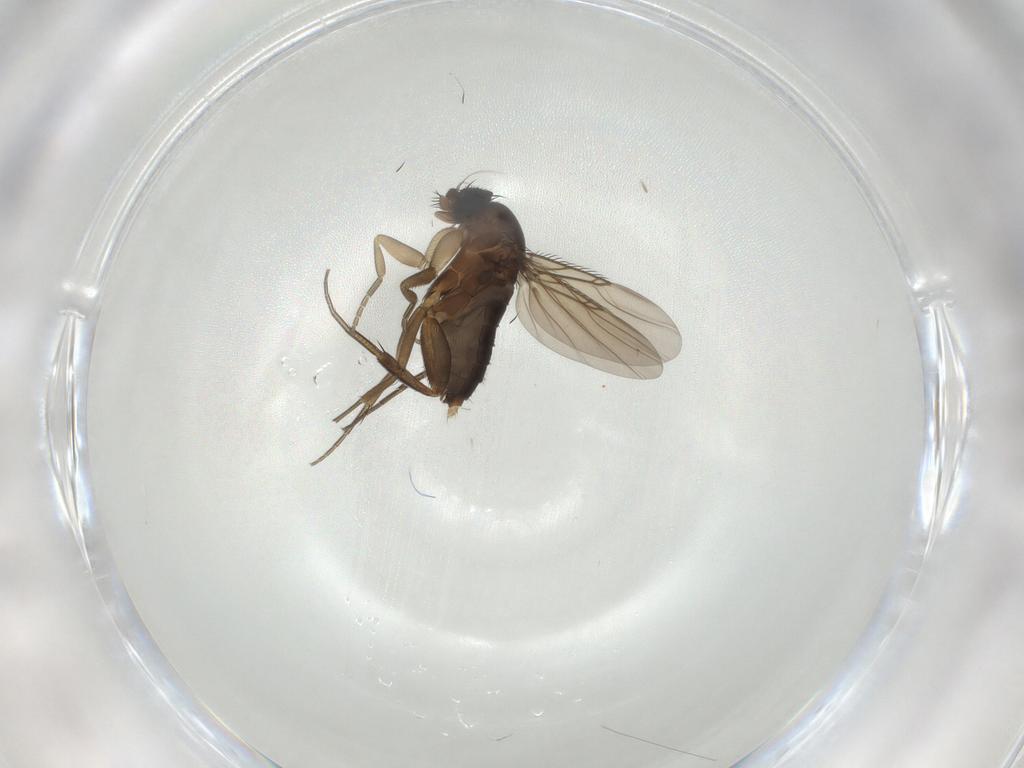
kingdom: Animalia
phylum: Arthropoda
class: Insecta
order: Diptera
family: Phoridae
